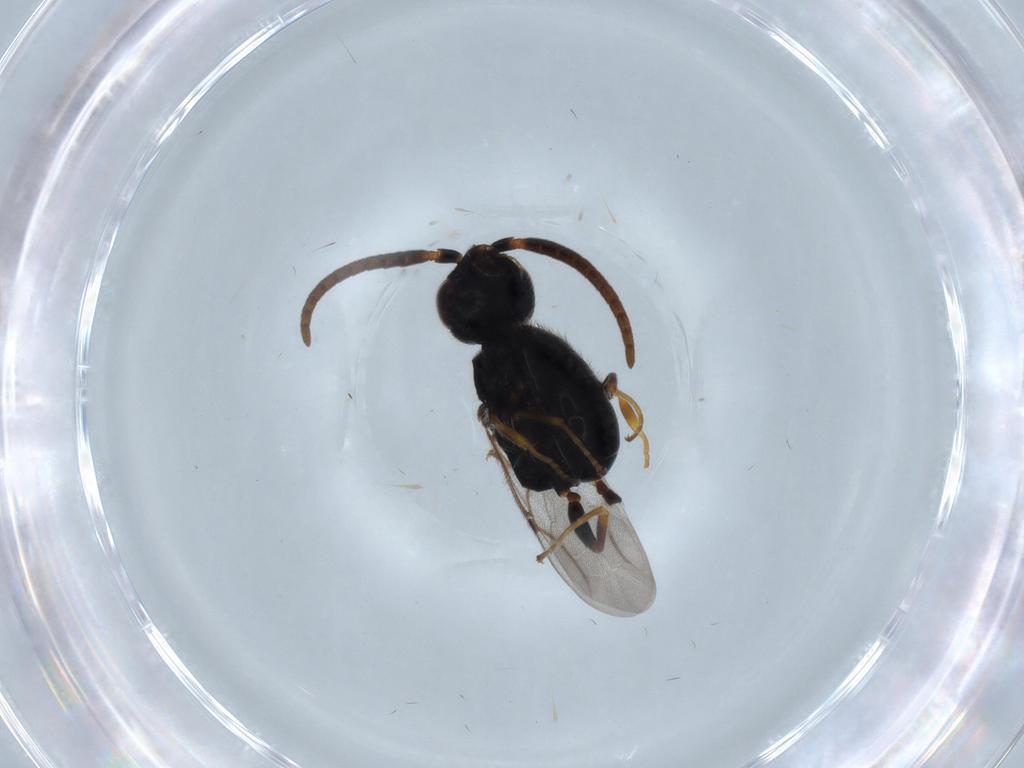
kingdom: Animalia
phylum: Arthropoda
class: Insecta
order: Hymenoptera
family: Bethylidae
